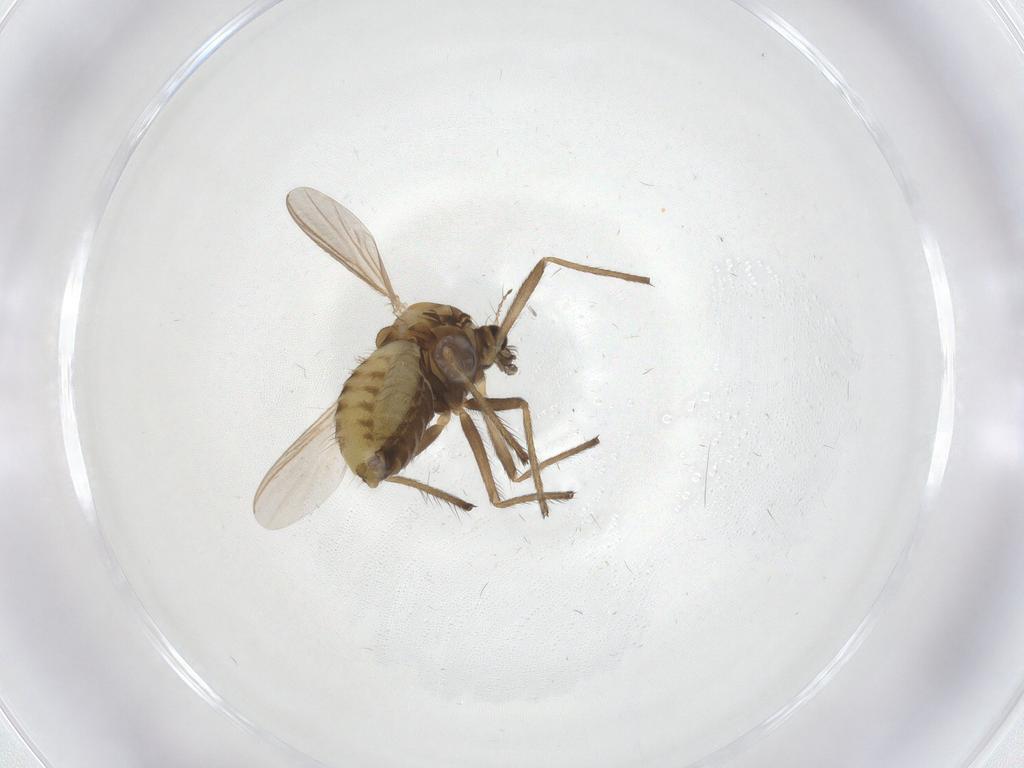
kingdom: Animalia
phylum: Arthropoda
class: Insecta
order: Diptera
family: Chironomidae
